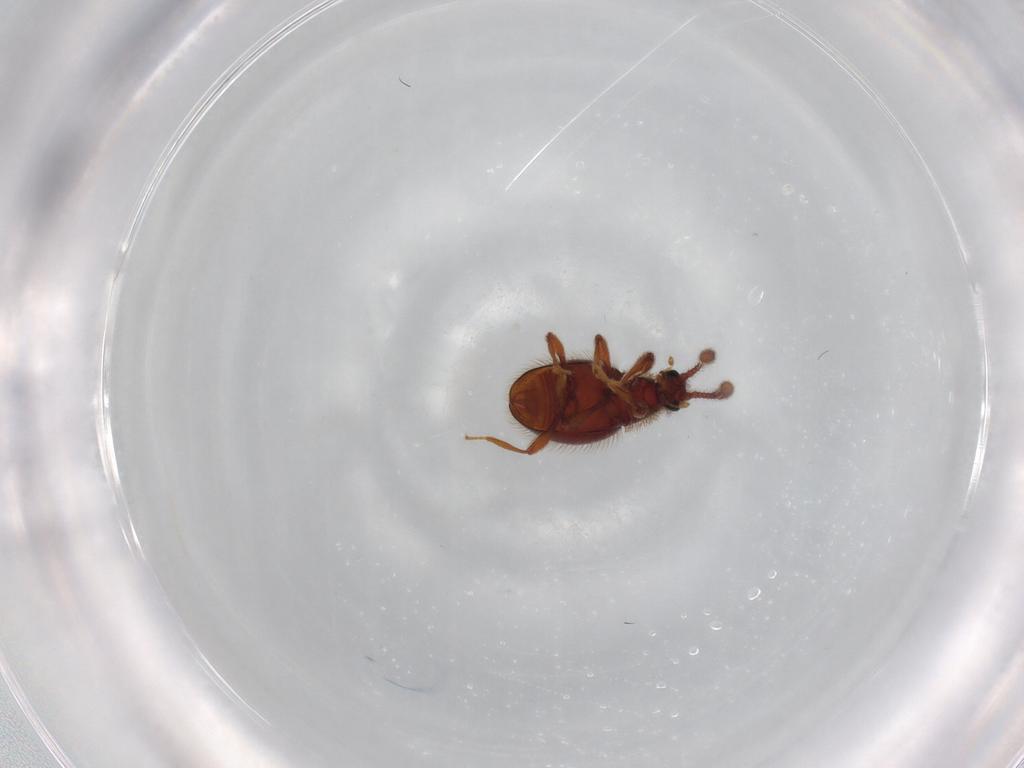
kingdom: Animalia
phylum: Arthropoda
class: Insecta
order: Coleoptera
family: Staphylinidae
